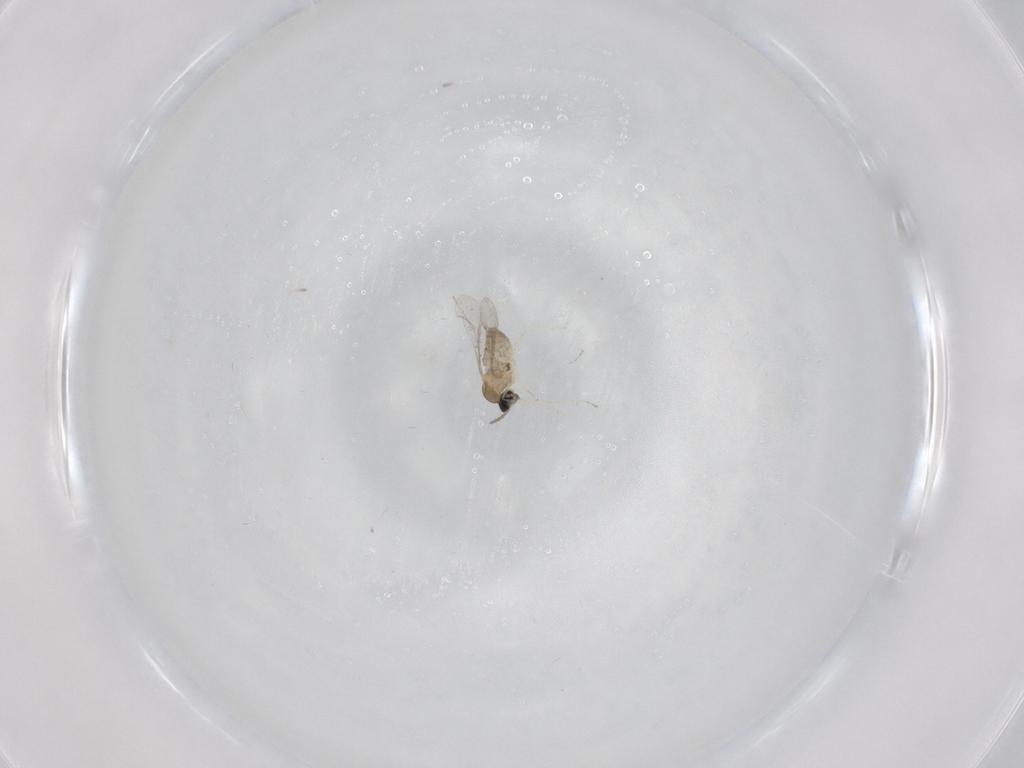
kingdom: Animalia
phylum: Arthropoda
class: Insecta
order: Diptera
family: Cecidomyiidae
